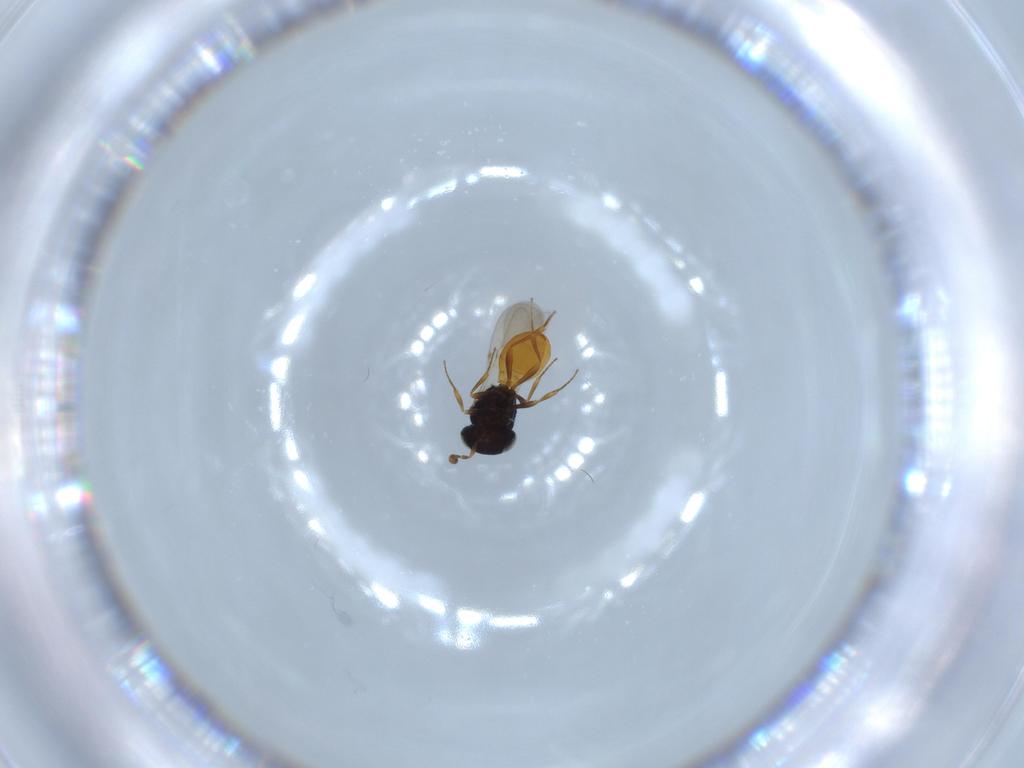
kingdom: Animalia
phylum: Arthropoda
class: Insecta
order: Hymenoptera
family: Scelionidae
